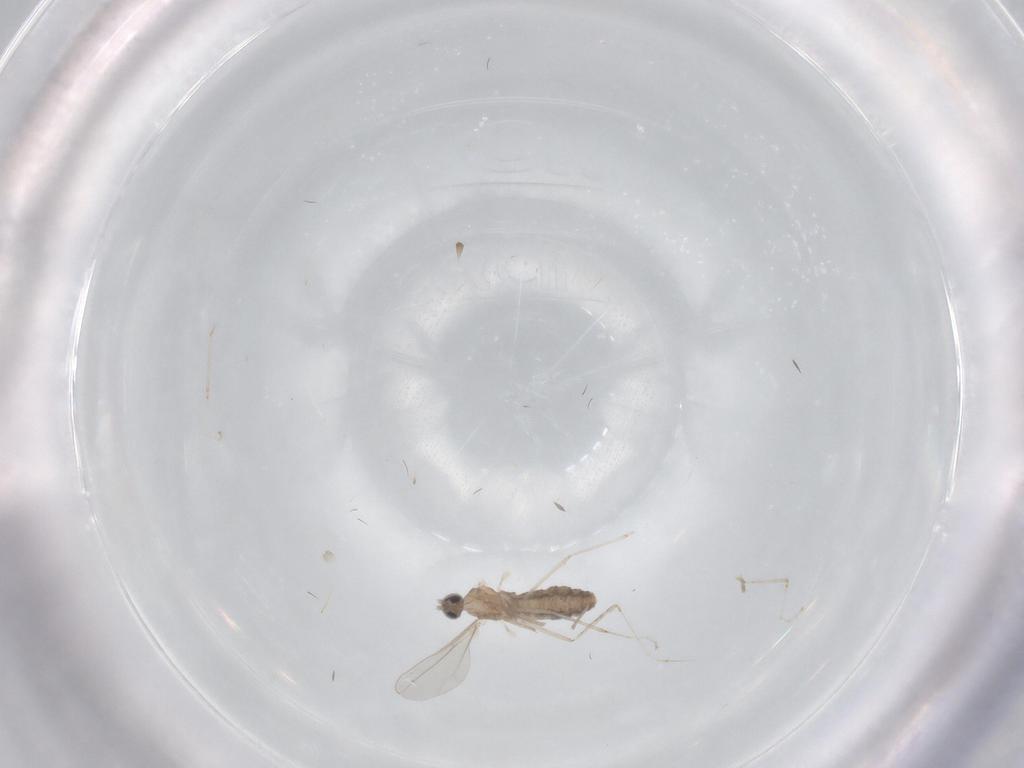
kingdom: Animalia
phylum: Arthropoda
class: Insecta
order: Diptera
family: Cecidomyiidae
